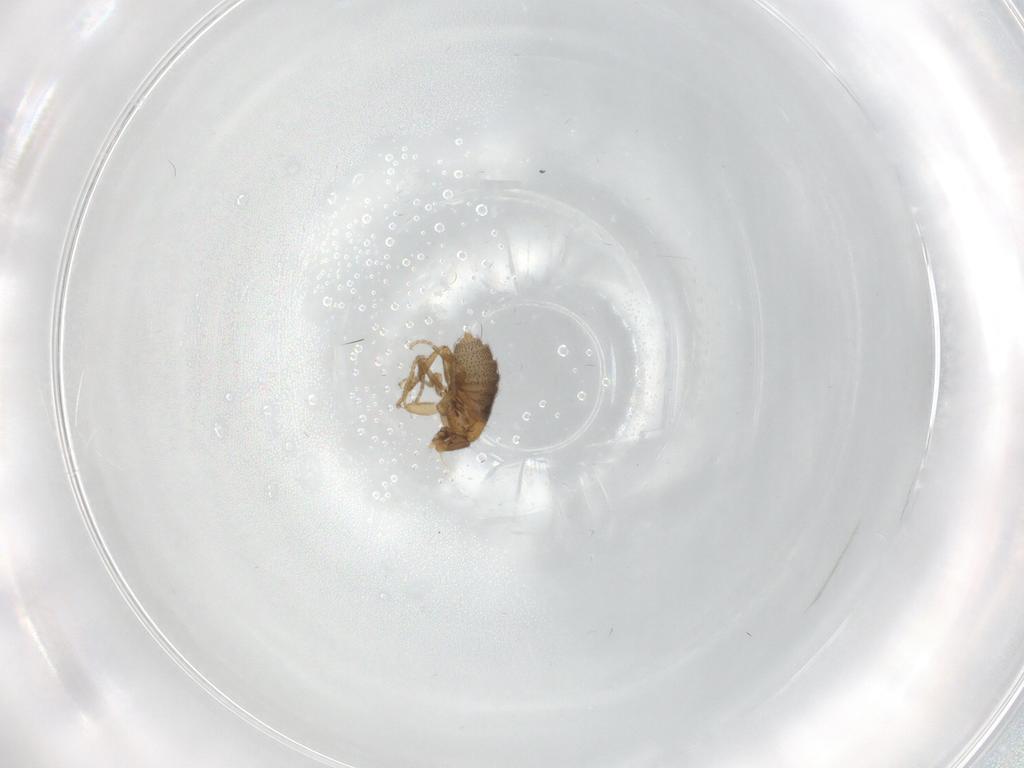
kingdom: Animalia
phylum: Arthropoda
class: Insecta
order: Diptera
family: Phoridae
